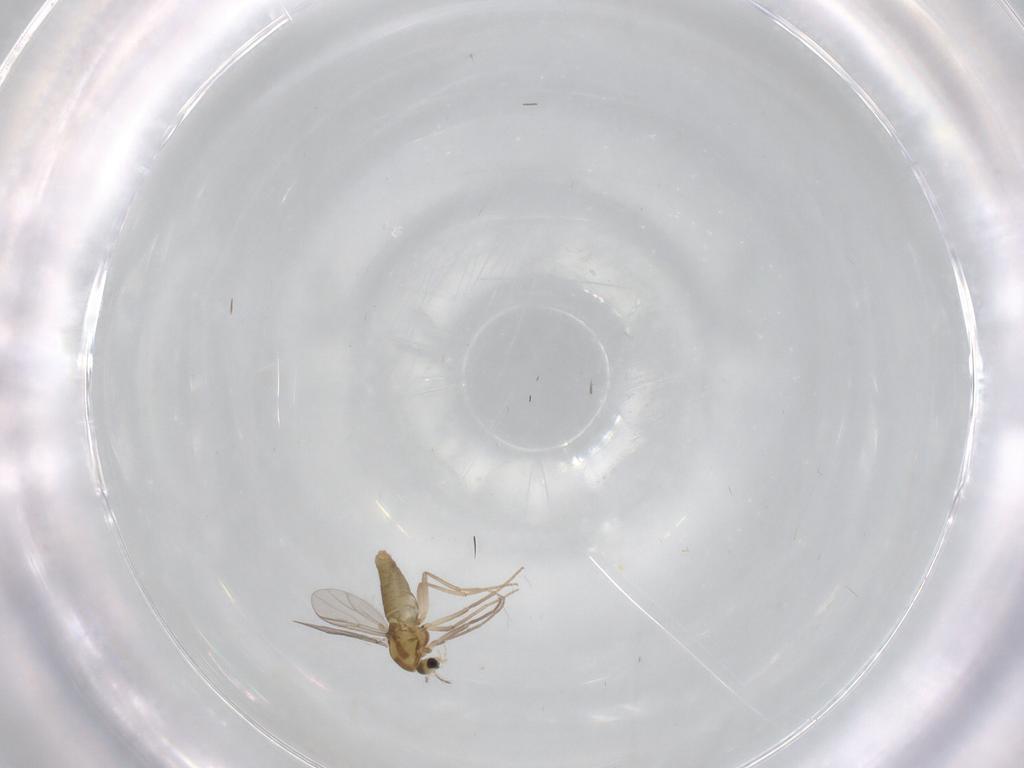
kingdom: Animalia
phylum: Arthropoda
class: Insecta
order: Diptera
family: Chironomidae
